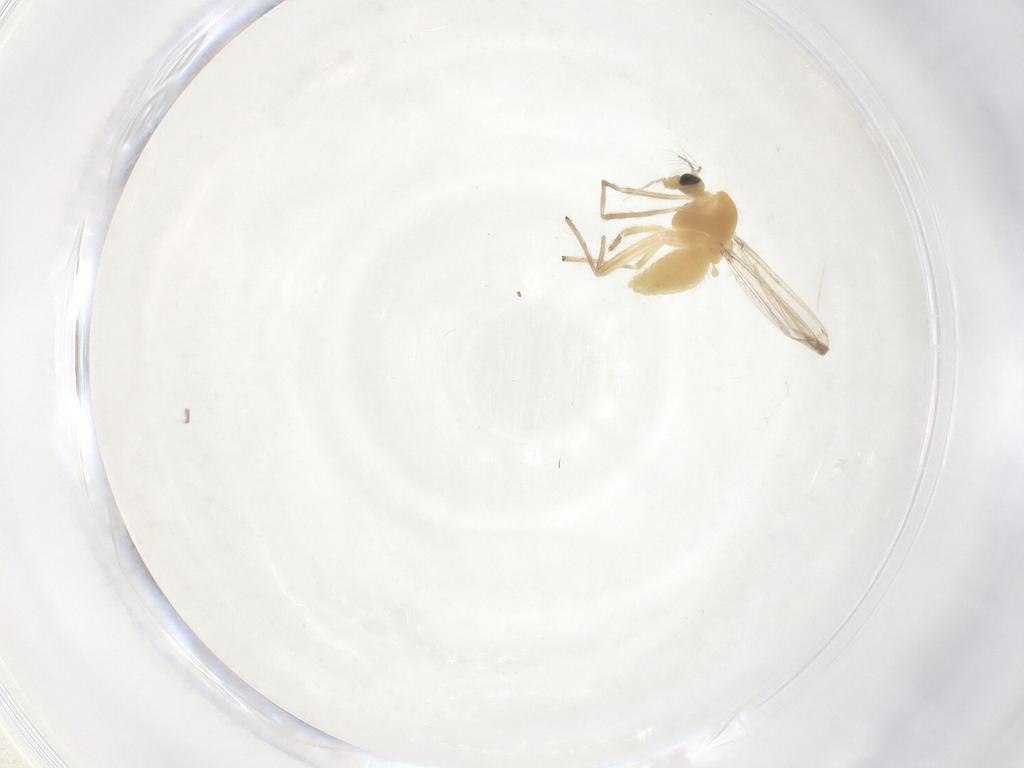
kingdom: Animalia
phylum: Arthropoda
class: Insecta
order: Diptera
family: Chironomidae
